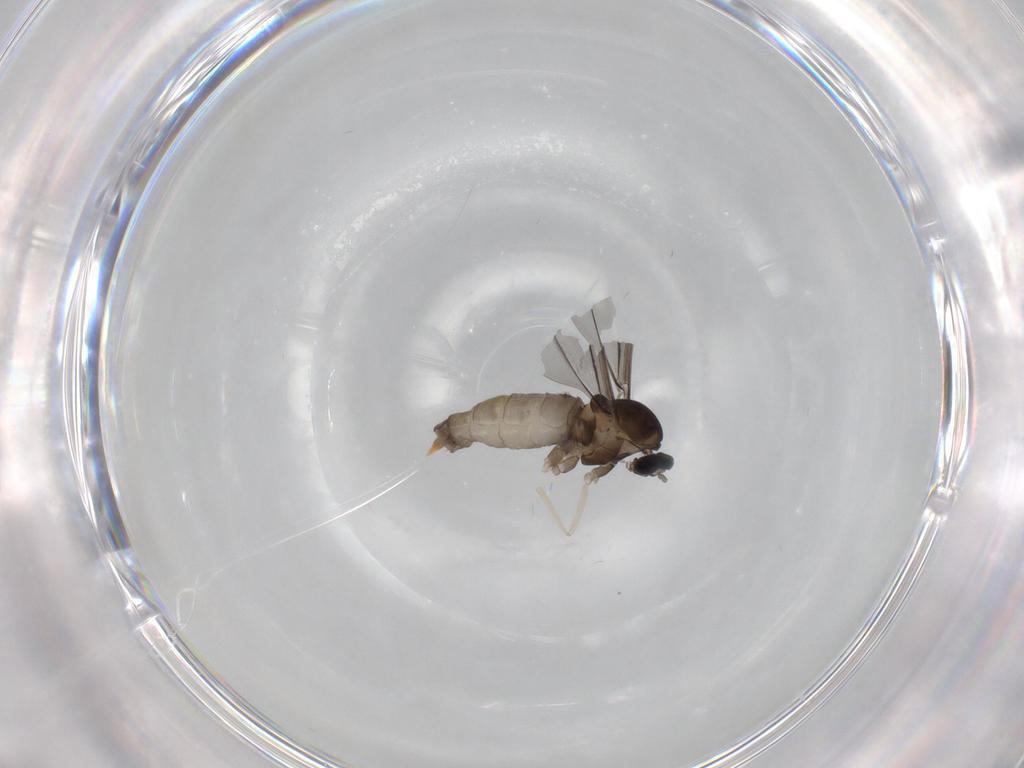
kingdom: Animalia
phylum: Arthropoda
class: Insecta
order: Diptera
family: Cecidomyiidae
